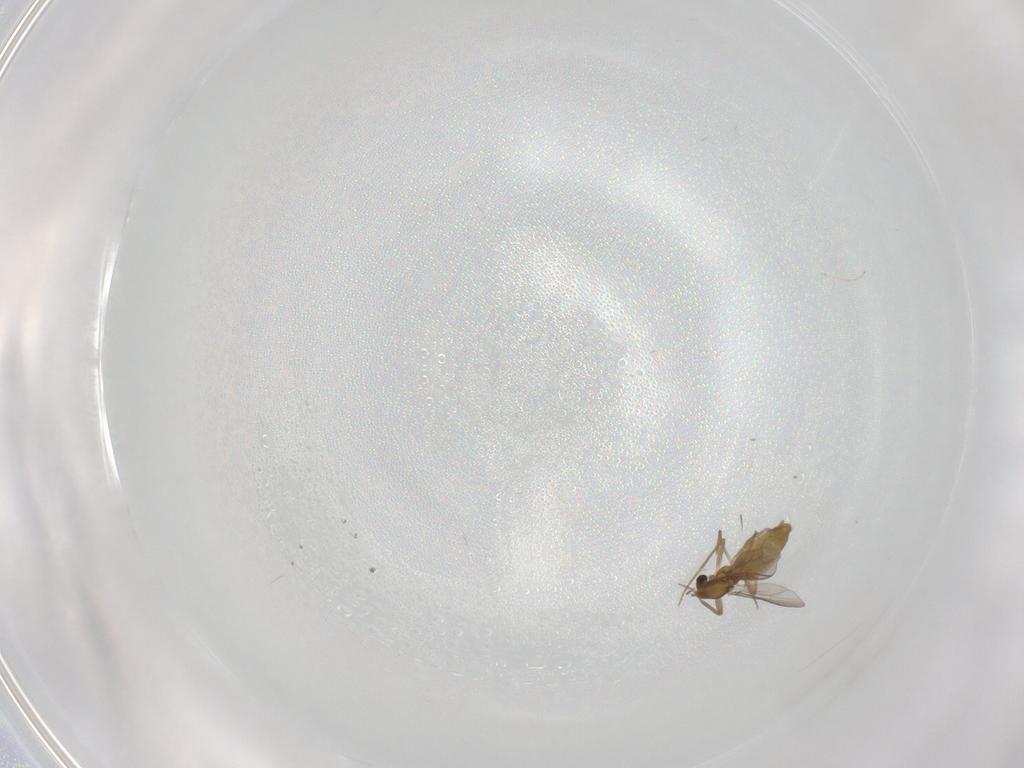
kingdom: Animalia
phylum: Arthropoda
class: Insecta
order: Diptera
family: Chironomidae
